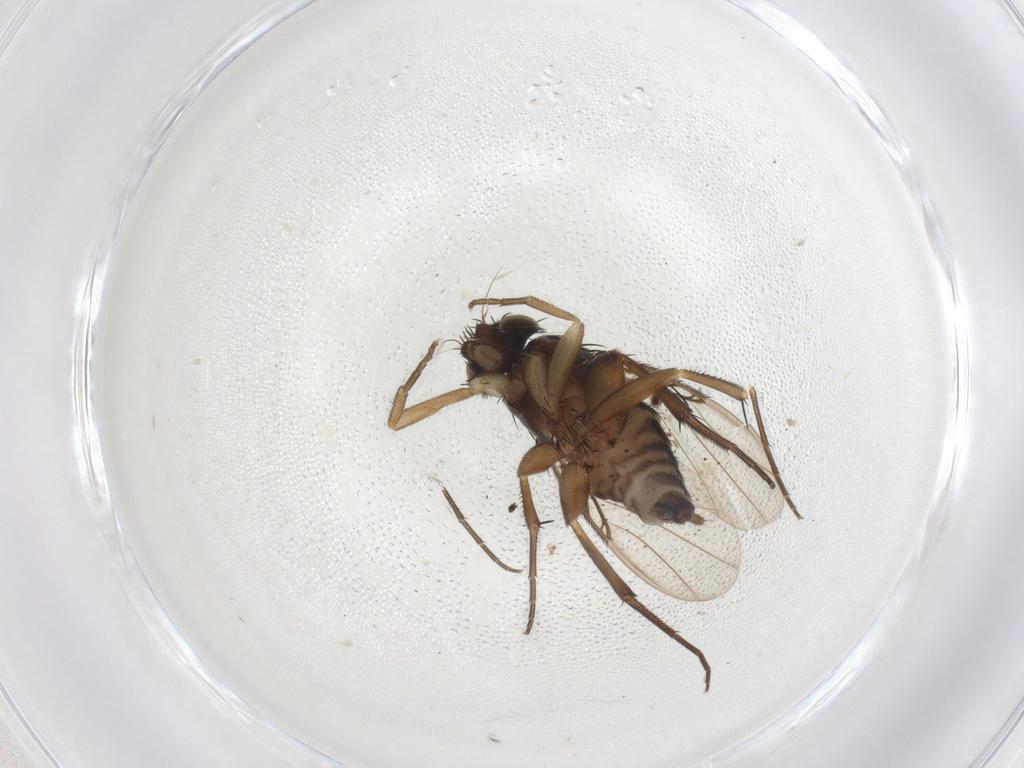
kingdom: Animalia
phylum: Arthropoda
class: Insecta
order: Diptera
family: Phoridae
